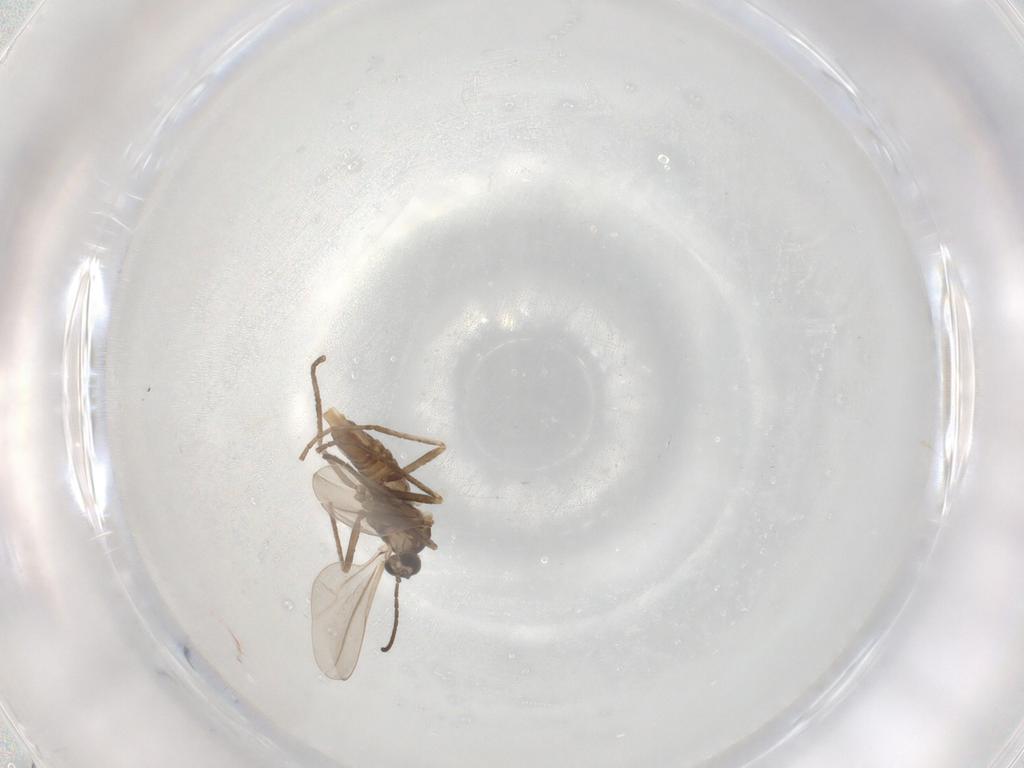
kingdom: Animalia
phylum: Arthropoda
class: Insecta
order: Diptera
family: Cecidomyiidae
